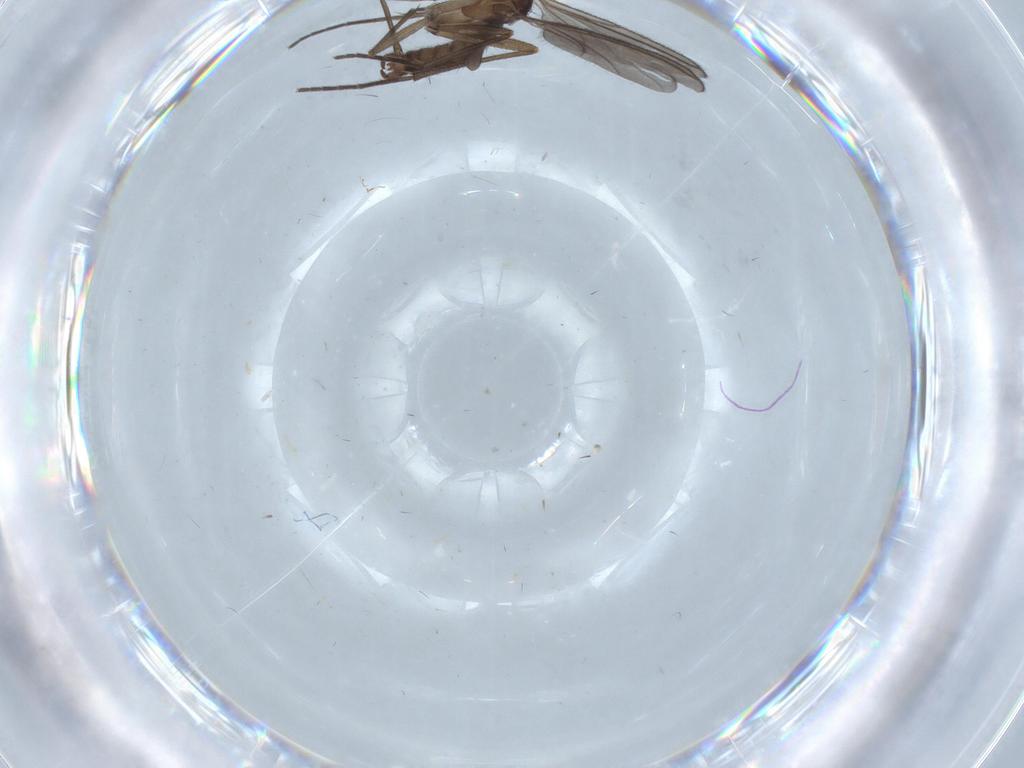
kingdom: Animalia
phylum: Arthropoda
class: Insecta
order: Diptera
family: Sciaridae
